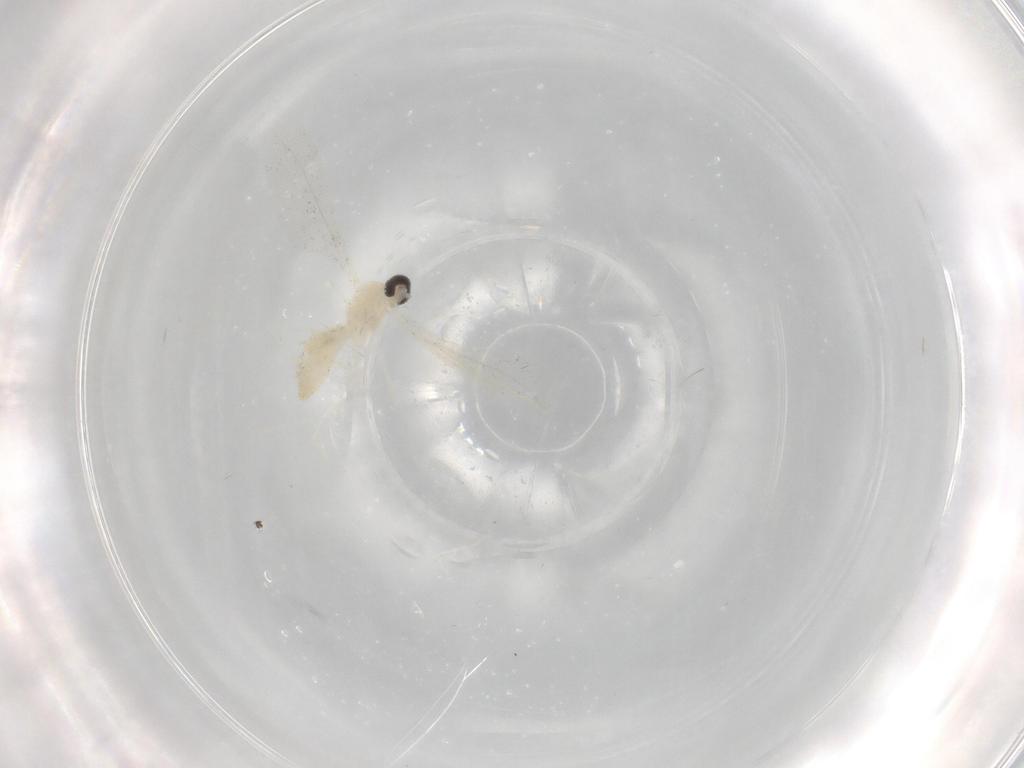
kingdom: Animalia
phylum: Arthropoda
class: Insecta
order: Diptera
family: Cecidomyiidae
